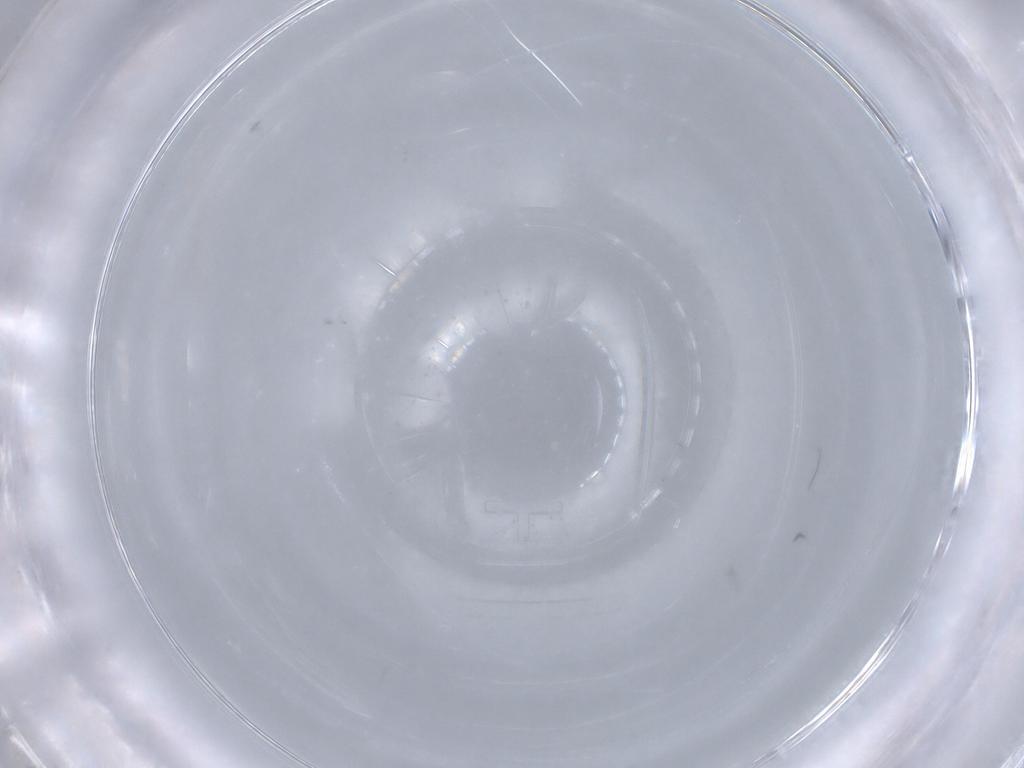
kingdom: Animalia
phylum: Arthropoda
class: Insecta
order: Diptera
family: Cecidomyiidae
